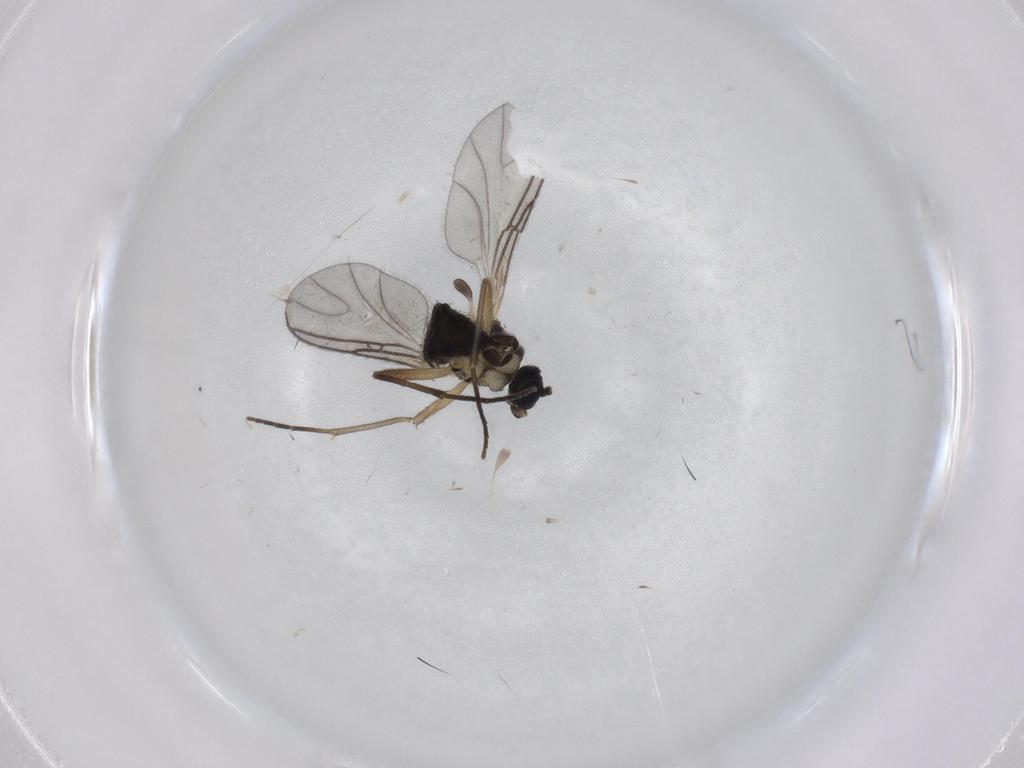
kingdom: Animalia
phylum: Arthropoda
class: Insecta
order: Diptera
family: Sciaridae
